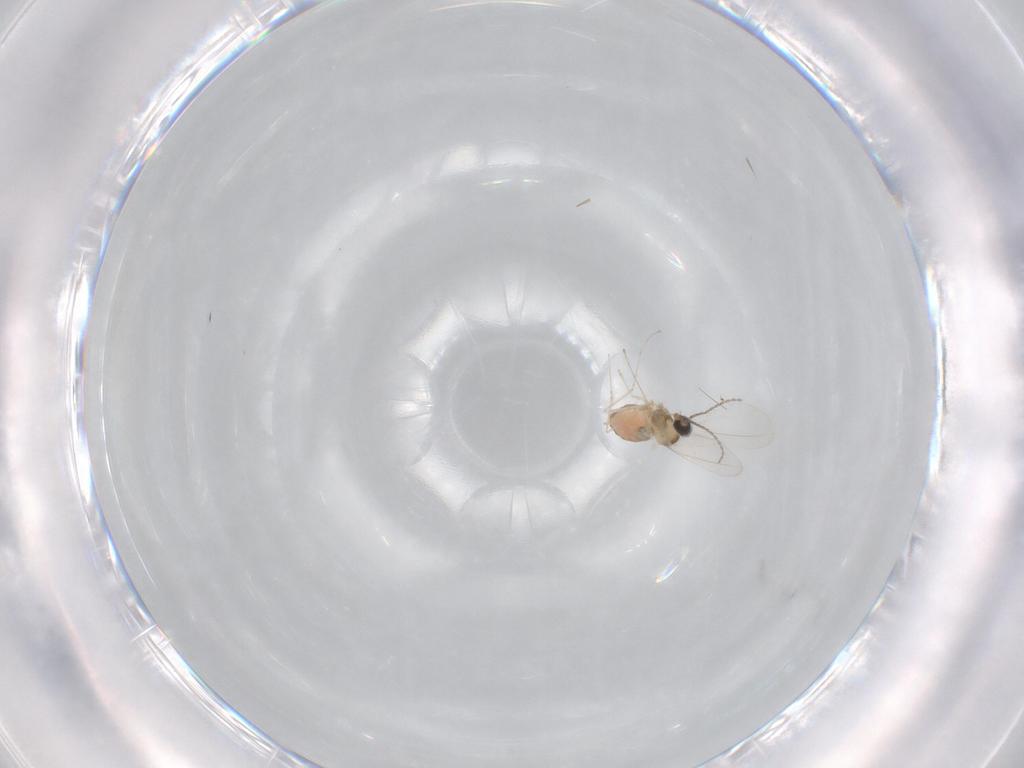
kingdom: Animalia
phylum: Arthropoda
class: Insecta
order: Diptera
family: Cecidomyiidae
